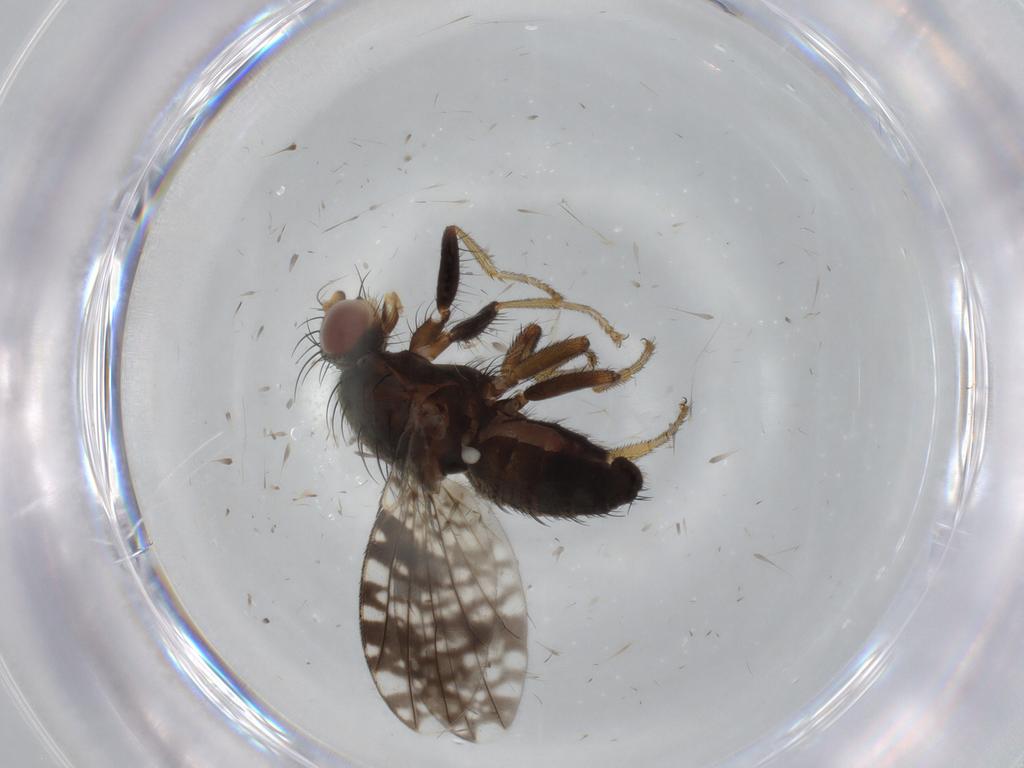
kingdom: Animalia
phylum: Arthropoda
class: Insecta
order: Diptera
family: Tephritidae
